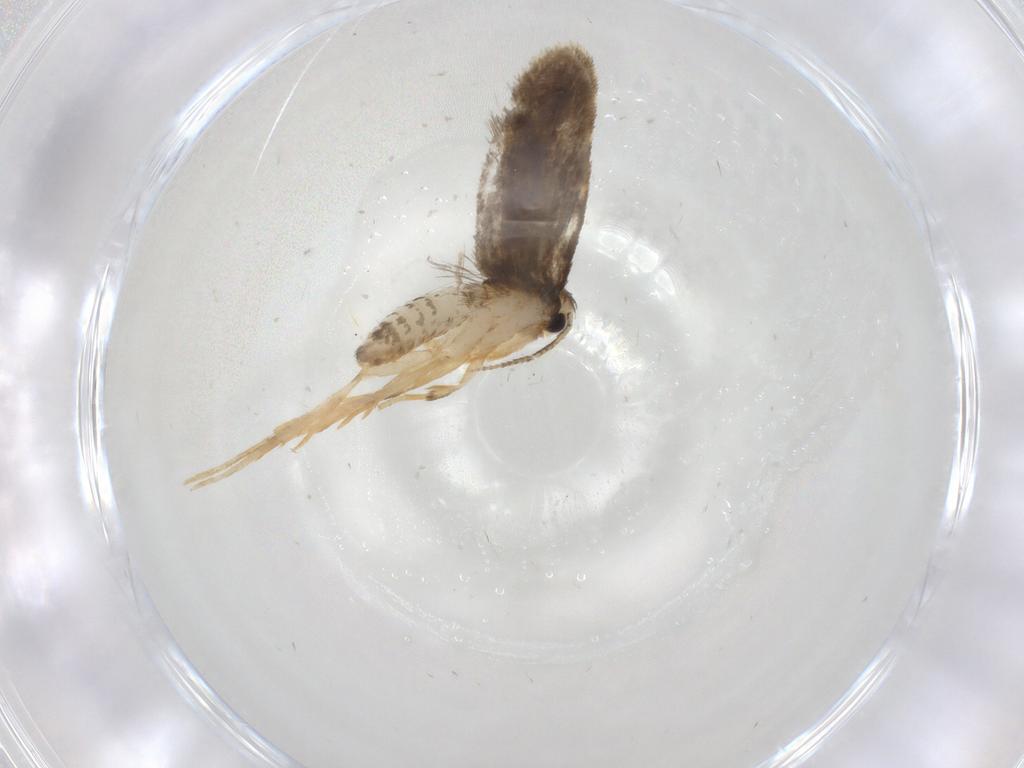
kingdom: Animalia
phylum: Arthropoda
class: Insecta
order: Lepidoptera
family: Psychidae
